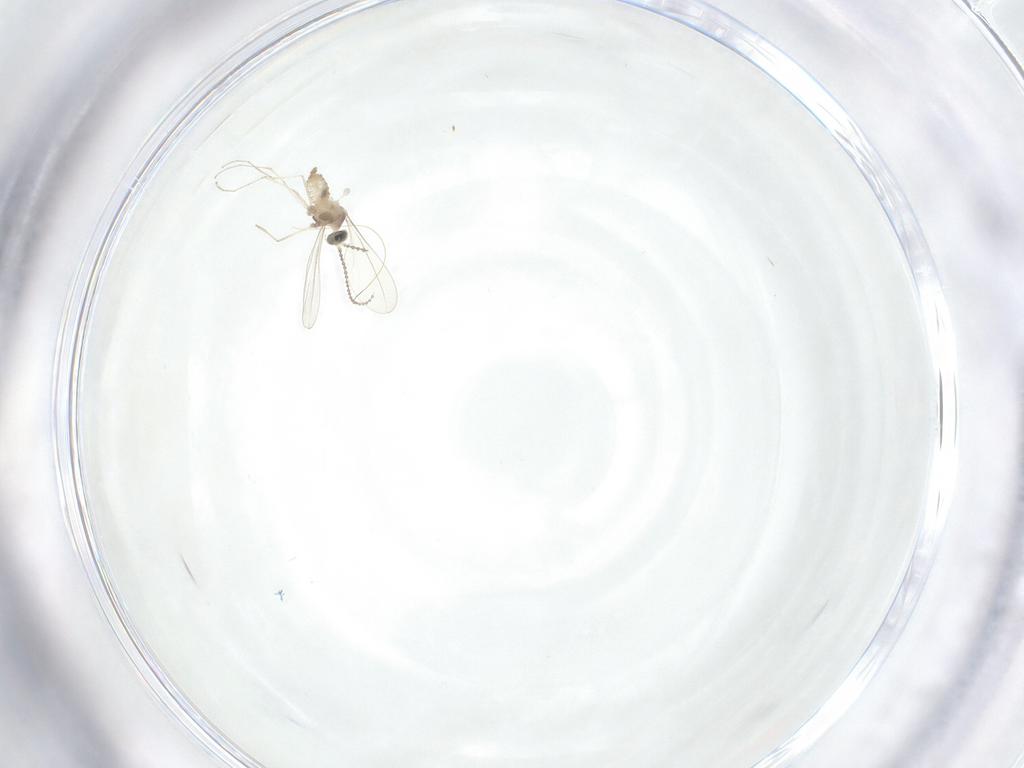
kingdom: Animalia
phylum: Arthropoda
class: Insecta
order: Diptera
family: Cecidomyiidae
